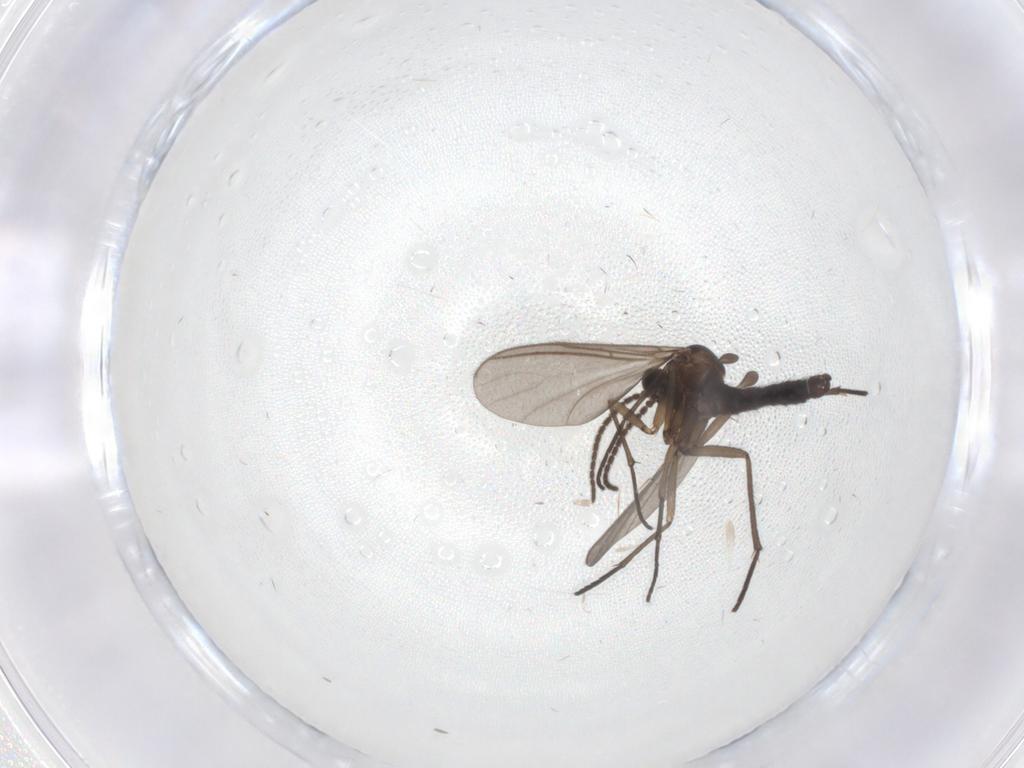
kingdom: Animalia
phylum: Arthropoda
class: Insecta
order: Diptera
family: Sciaridae
